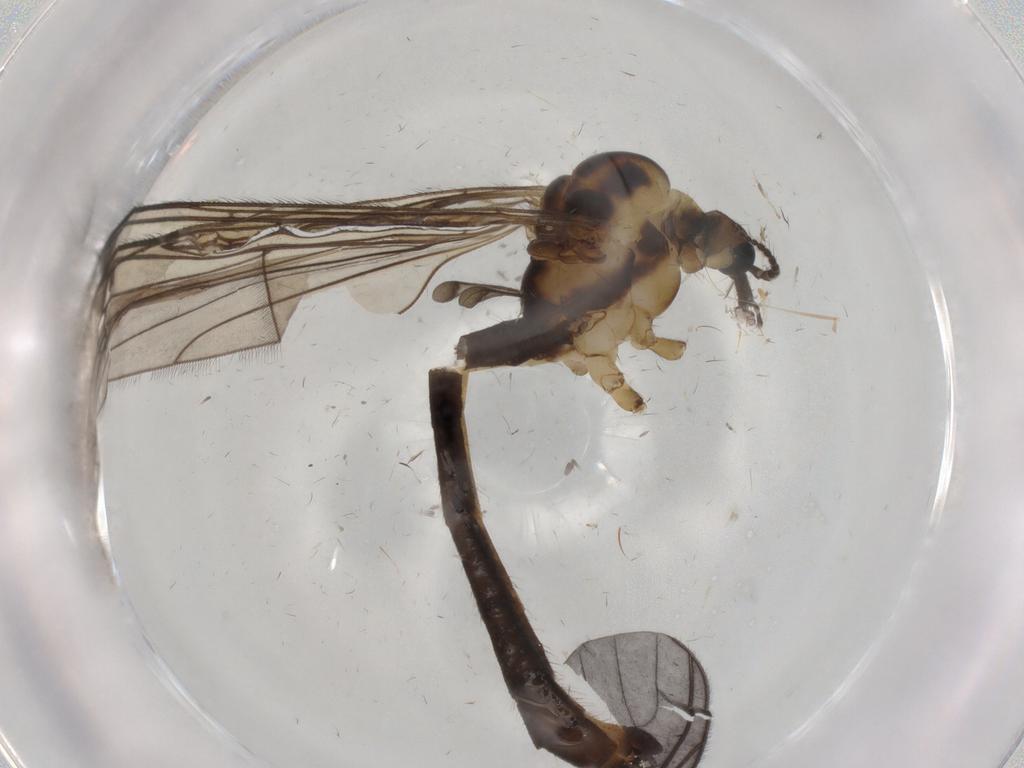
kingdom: Animalia
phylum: Arthropoda
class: Insecta
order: Diptera
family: Limoniidae
